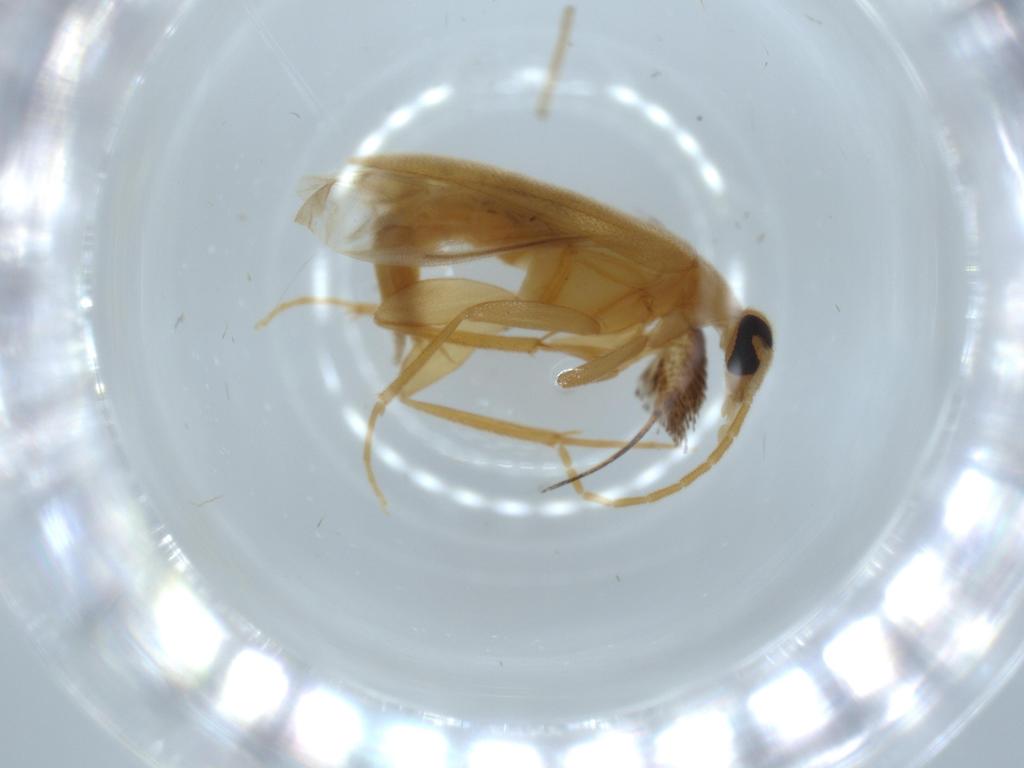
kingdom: Animalia
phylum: Arthropoda
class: Insecta
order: Coleoptera
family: Scraptiidae
